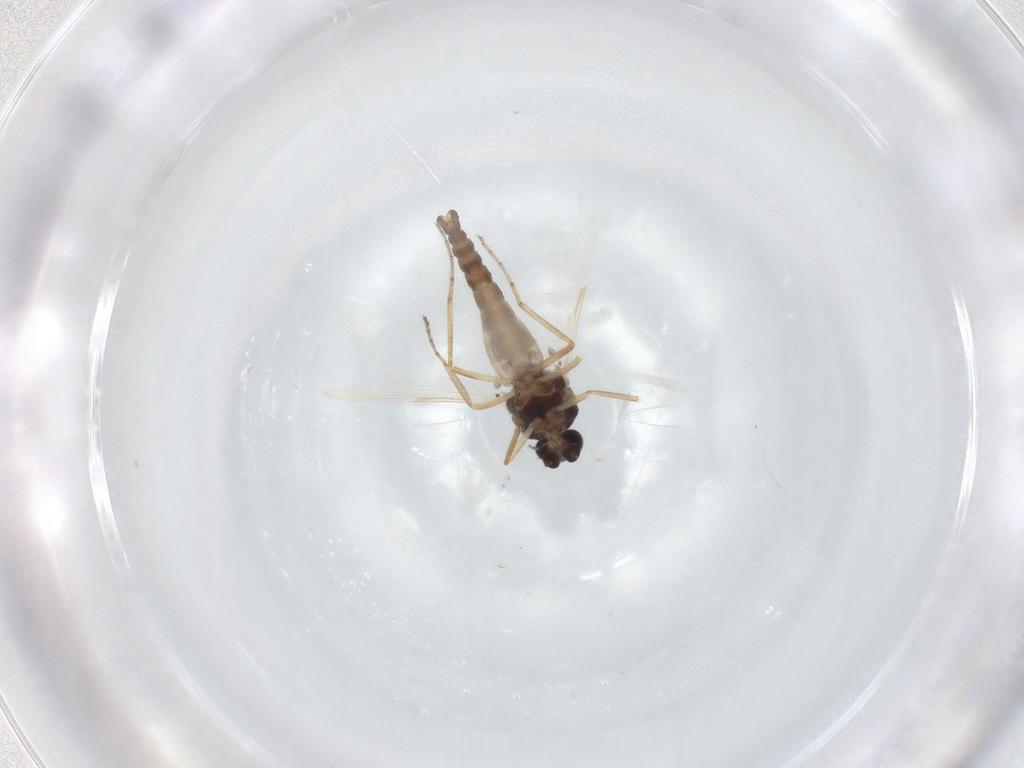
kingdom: Animalia
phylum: Arthropoda
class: Insecta
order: Diptera
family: Ceratopogonidae
